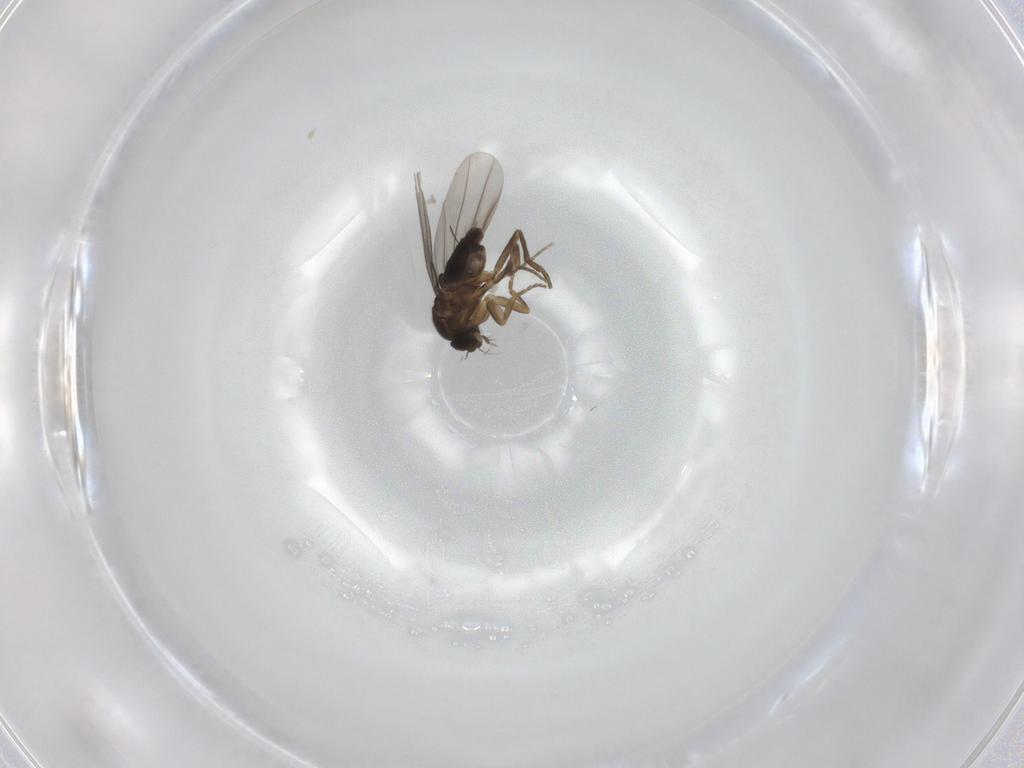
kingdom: Animalia
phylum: Arthropoda
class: Insecta
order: Diptera
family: Phoridae
